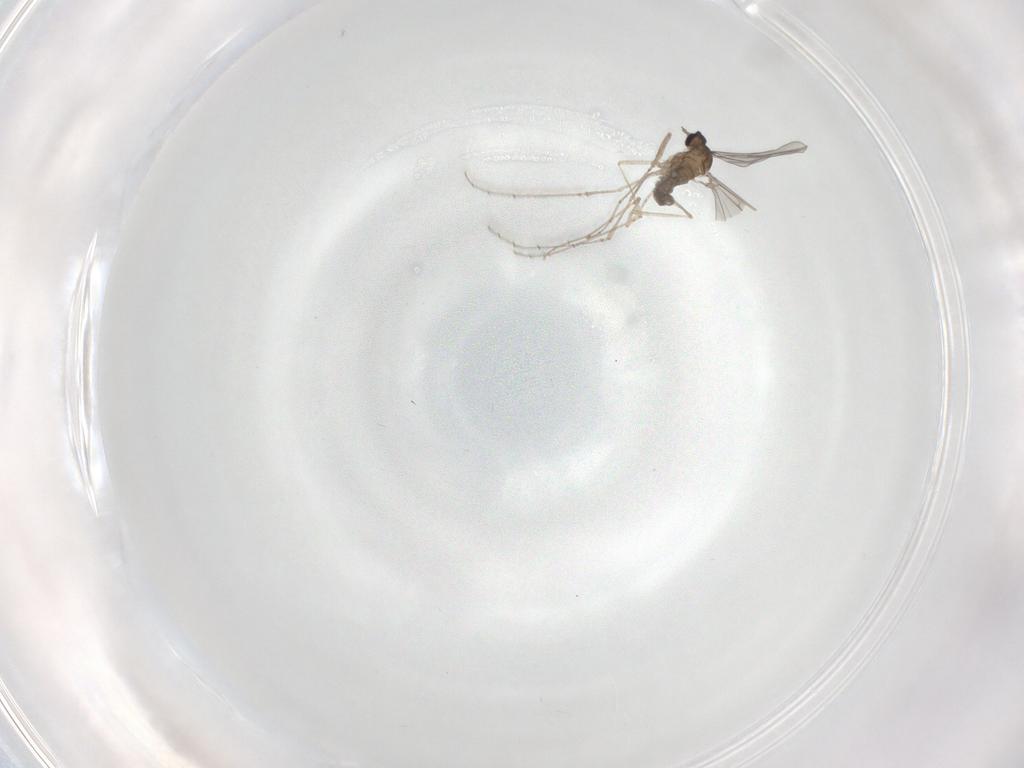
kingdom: Animalia
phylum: Arthropoda
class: Insecta
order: Diptera
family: Cecidomyiidae
